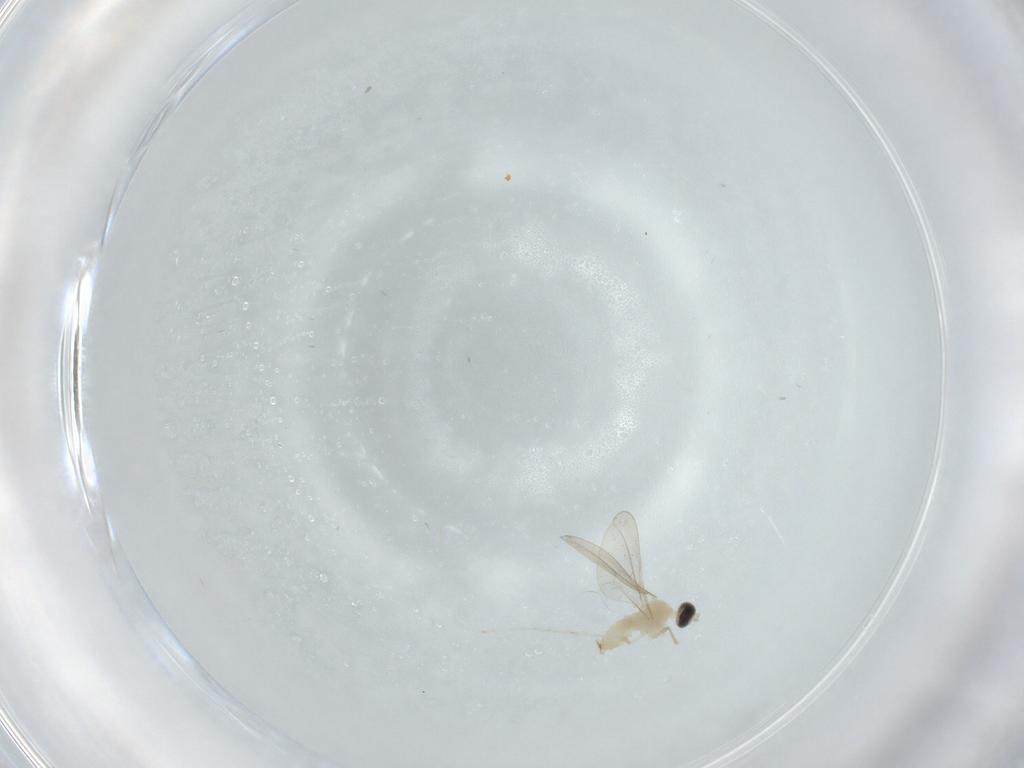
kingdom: Animalia
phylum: Arthropoda
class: Insecta
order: Diptera
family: Cecidomyiidae
